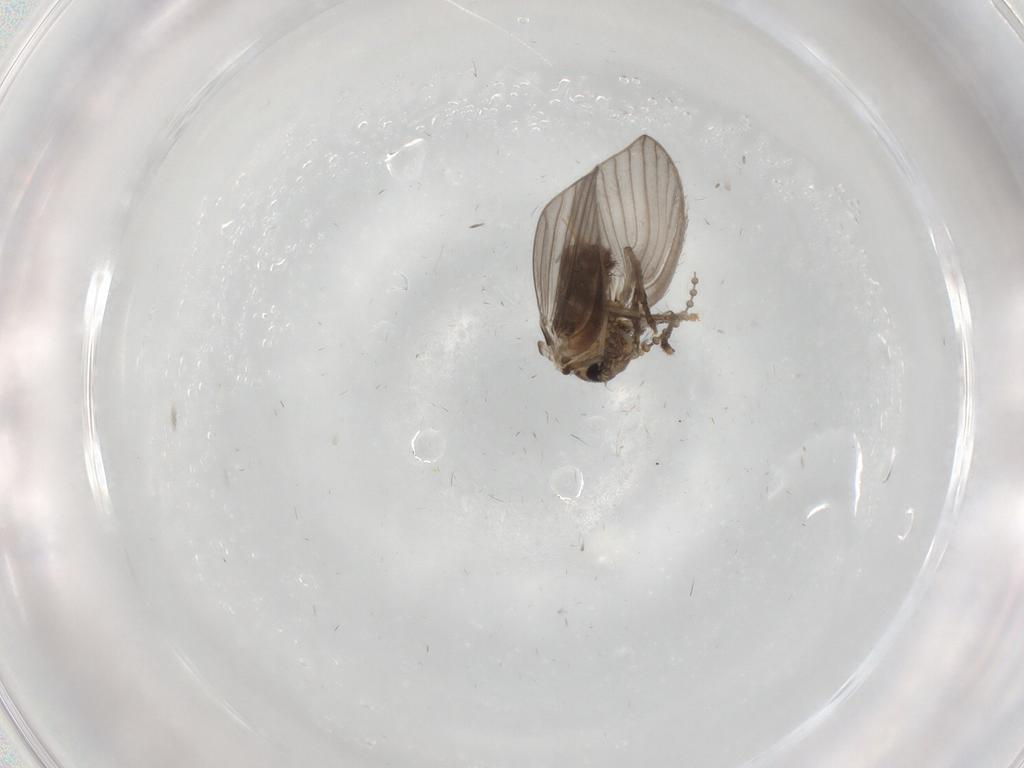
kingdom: Animalia
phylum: Arthropoda
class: Insecta
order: Diptera
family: Psychodidae
